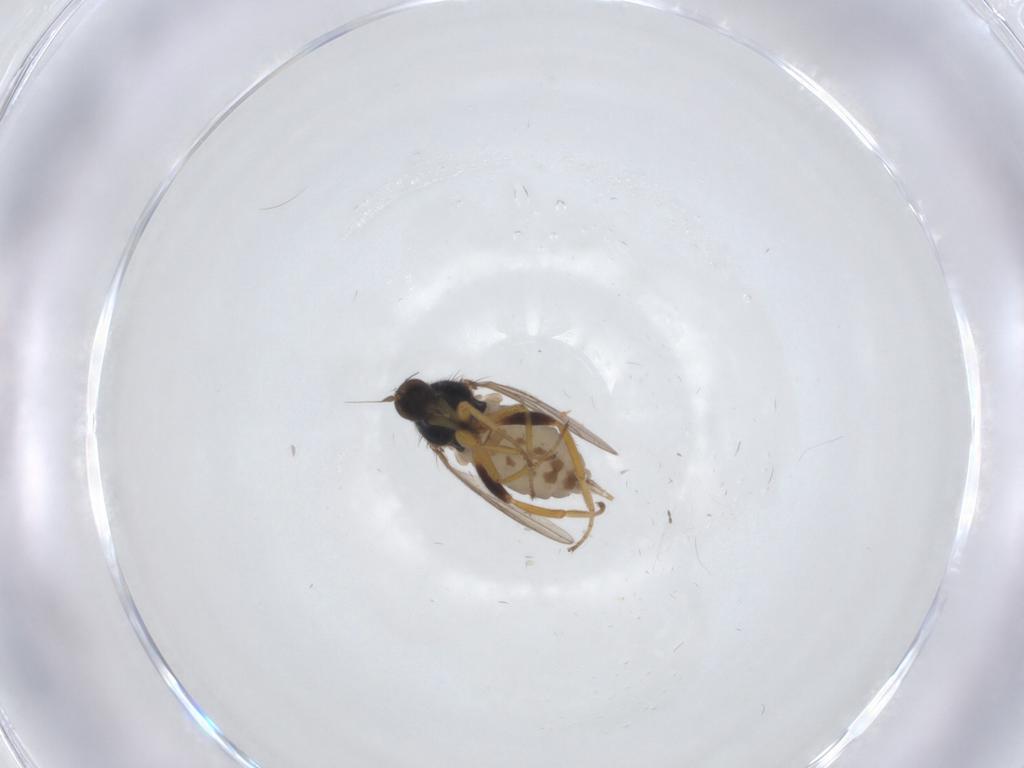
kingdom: Animalia
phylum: Arthropoda
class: Insecta
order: Diptera
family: Hybotidae
